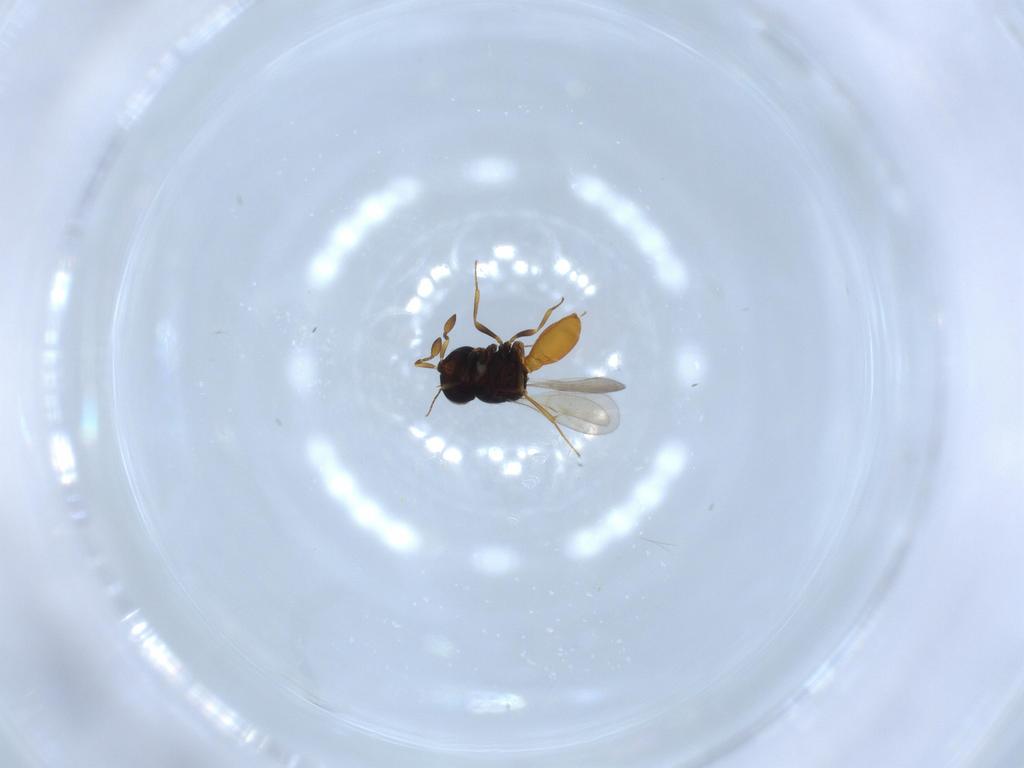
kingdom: Animalia
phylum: Arthropoda
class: Insecta
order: Hymenoptera
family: Scelionidae
